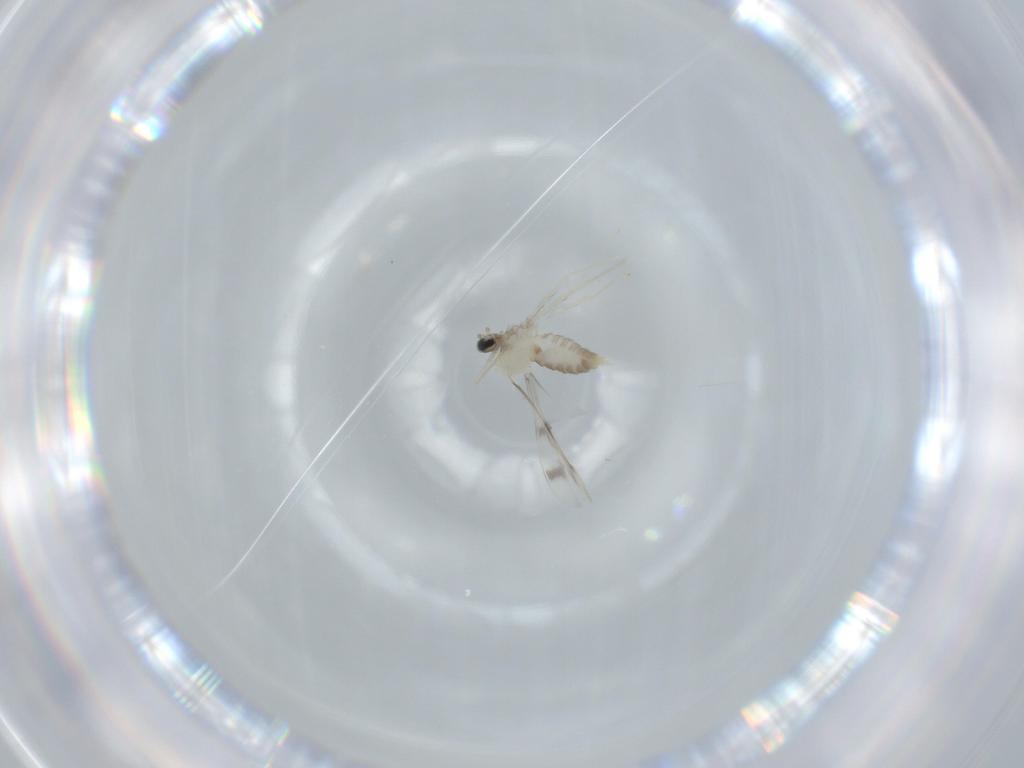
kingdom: Animalia
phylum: Arthropoda
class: Insecta
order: Diptera
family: Cecidomyiidae
